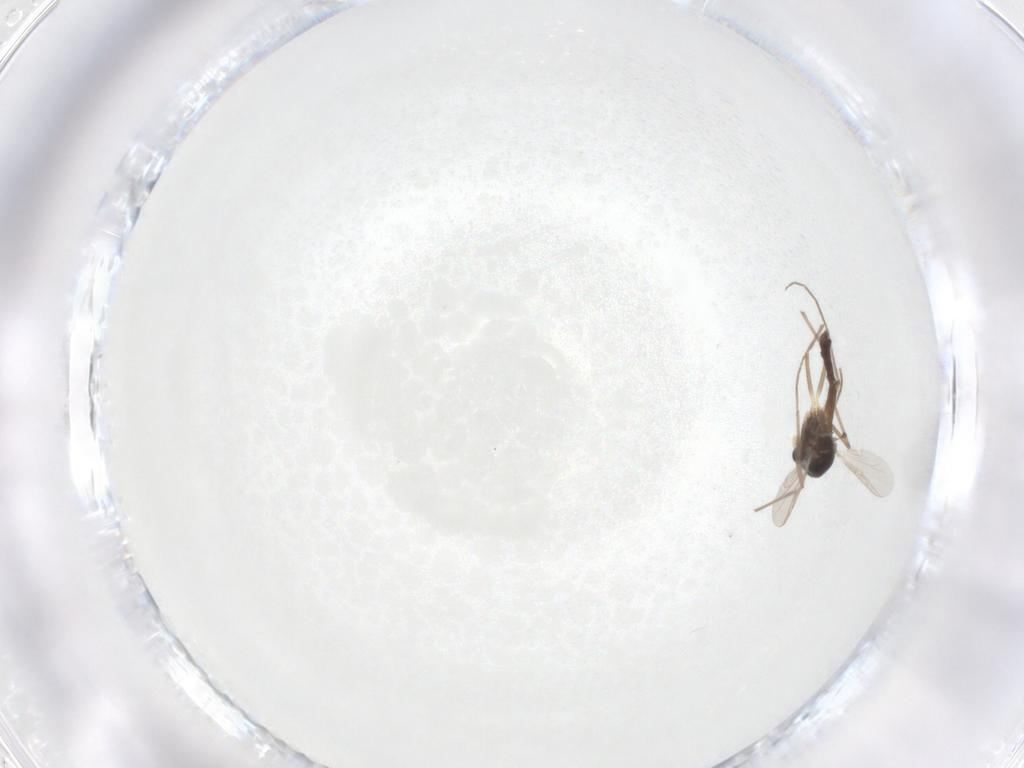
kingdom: Animalia
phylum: Arthropoda
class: Insecta
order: Diptera
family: Chironomidae
